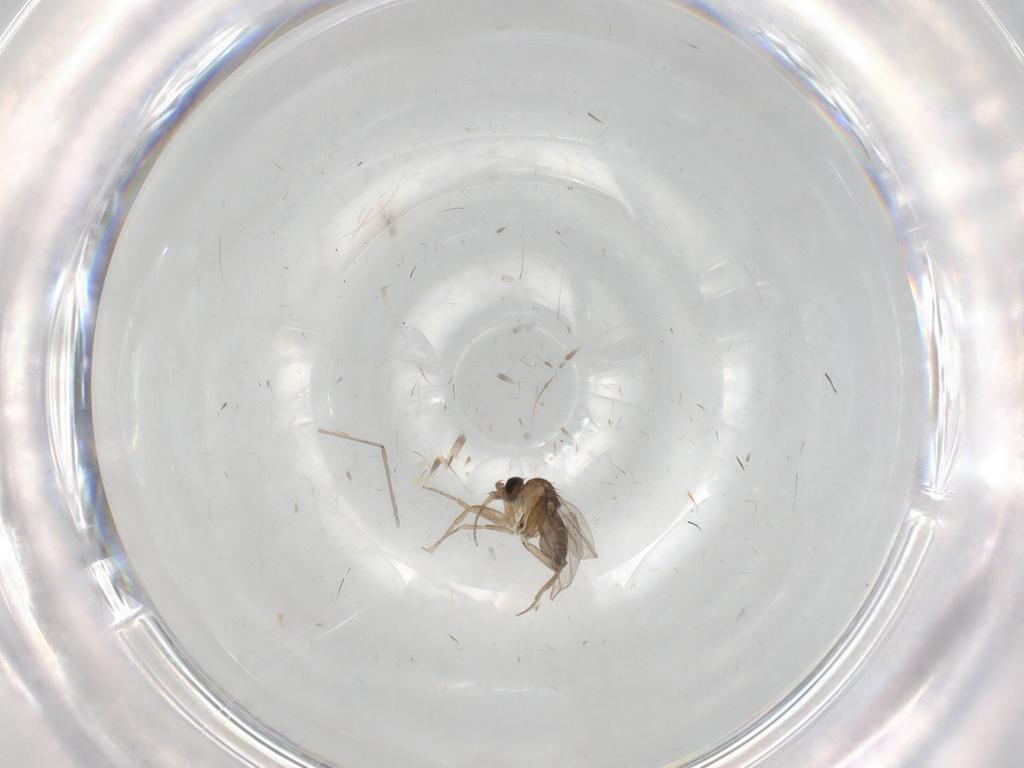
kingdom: Animalia
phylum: Arthropoda
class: Insecta
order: Diptera
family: Cecidomyiidae
